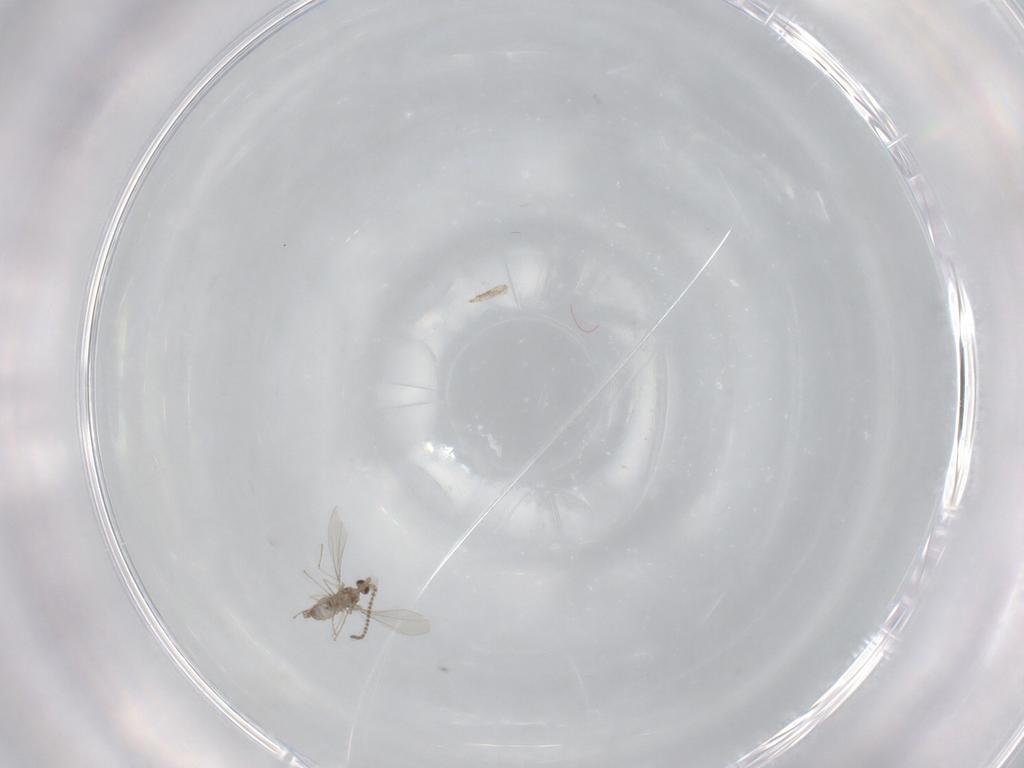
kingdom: Animalia
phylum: Arthropoda
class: Insecta
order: Diptera
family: Cecidomyiidae
